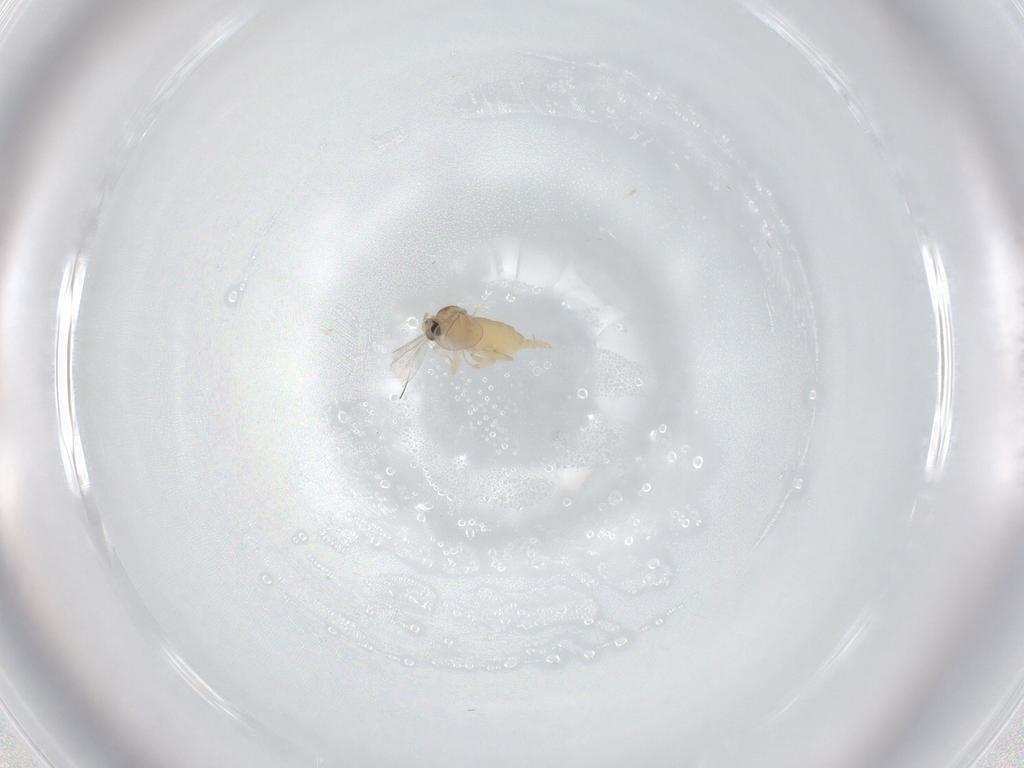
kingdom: Animalia
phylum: Arthropoda
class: Insecta
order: Diptera
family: Cecidomyiidae
